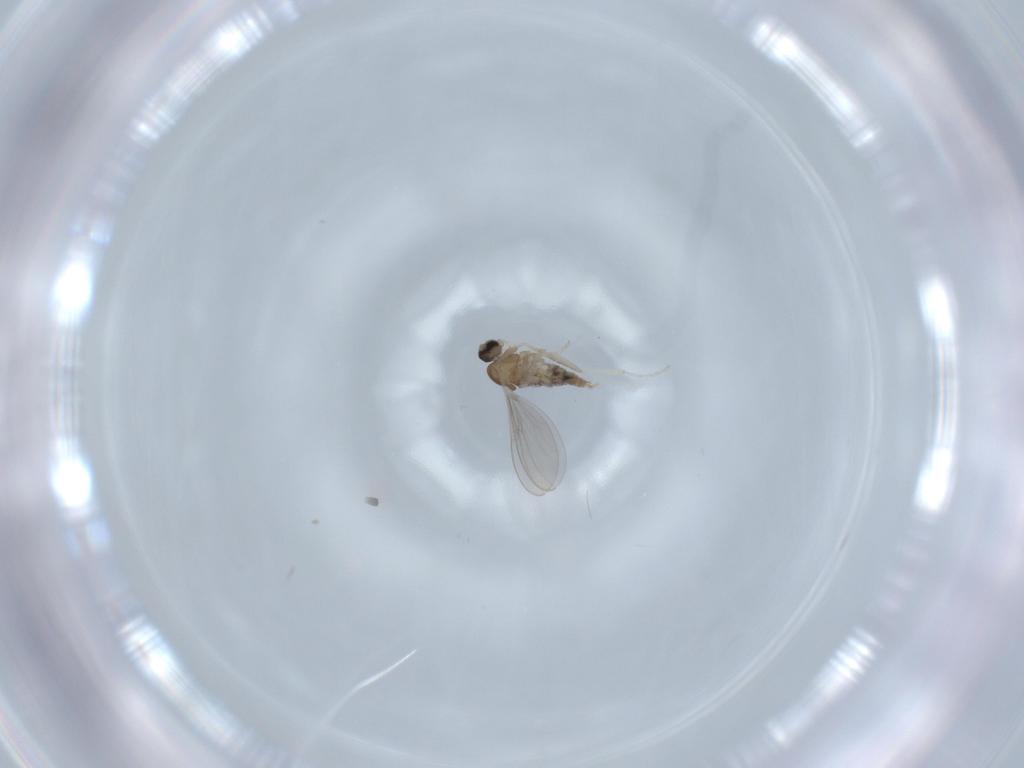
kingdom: Animalia
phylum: Arthropoda
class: Insecta
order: Diptera
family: Cecidomyiidae
